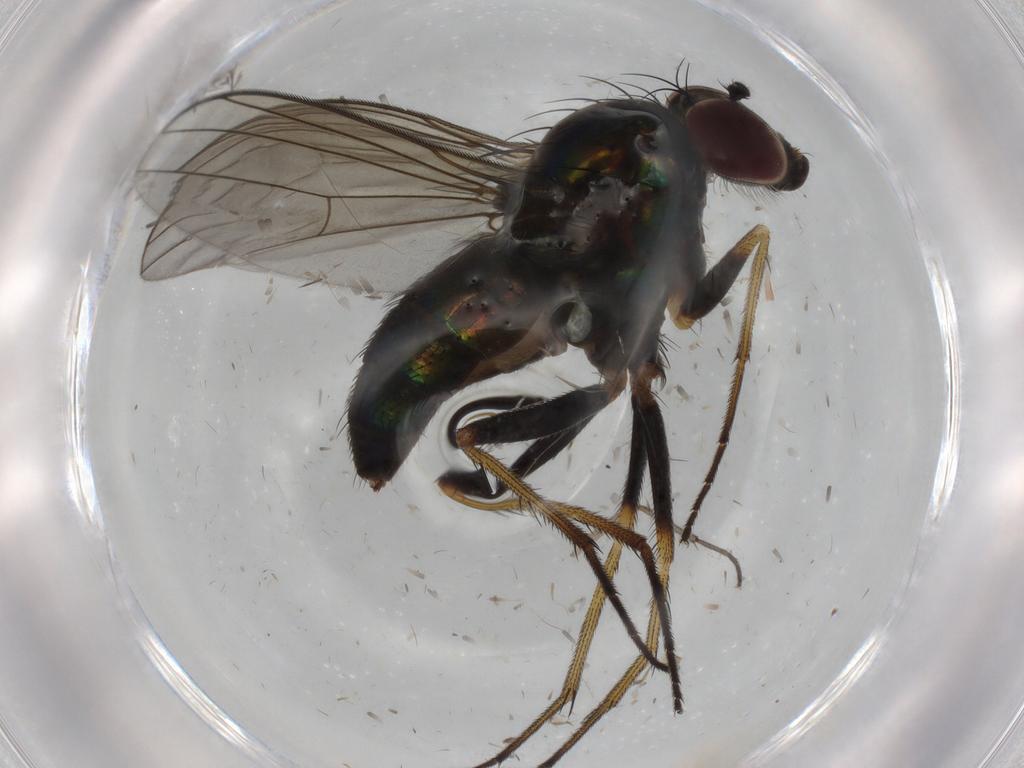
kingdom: Animalia
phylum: Arthropoda
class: Insecta
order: Diptera
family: Dolichopodidae
